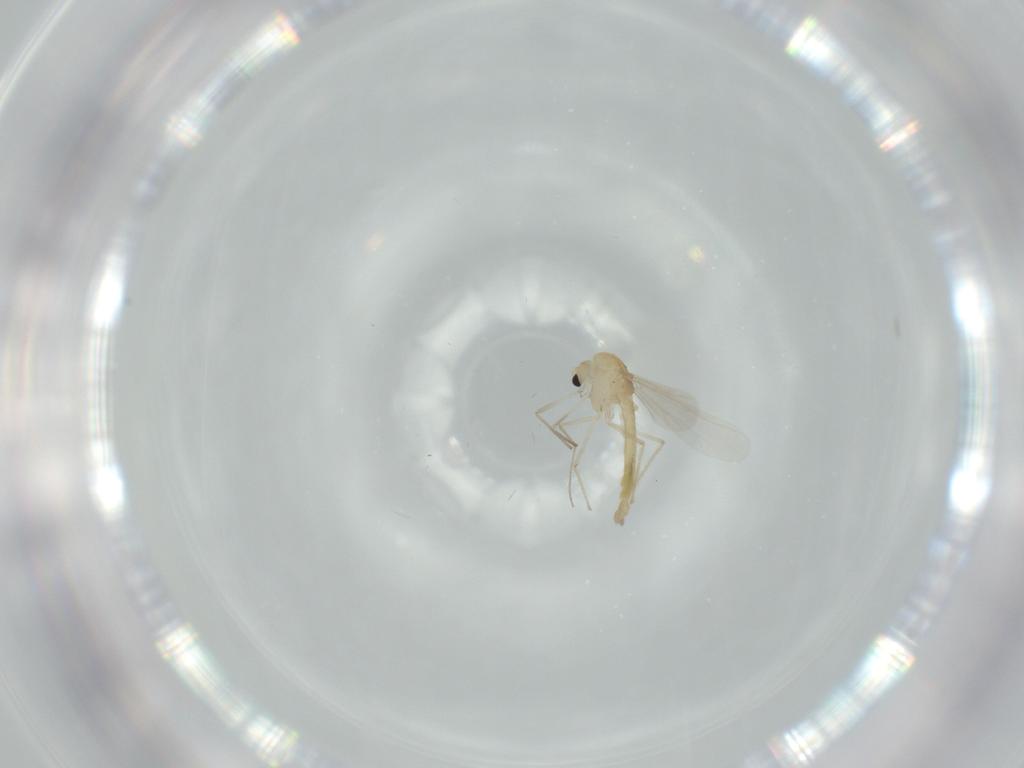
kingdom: Animalia
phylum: Arthropoda
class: Insecta
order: Diptera
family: Chironomidae
